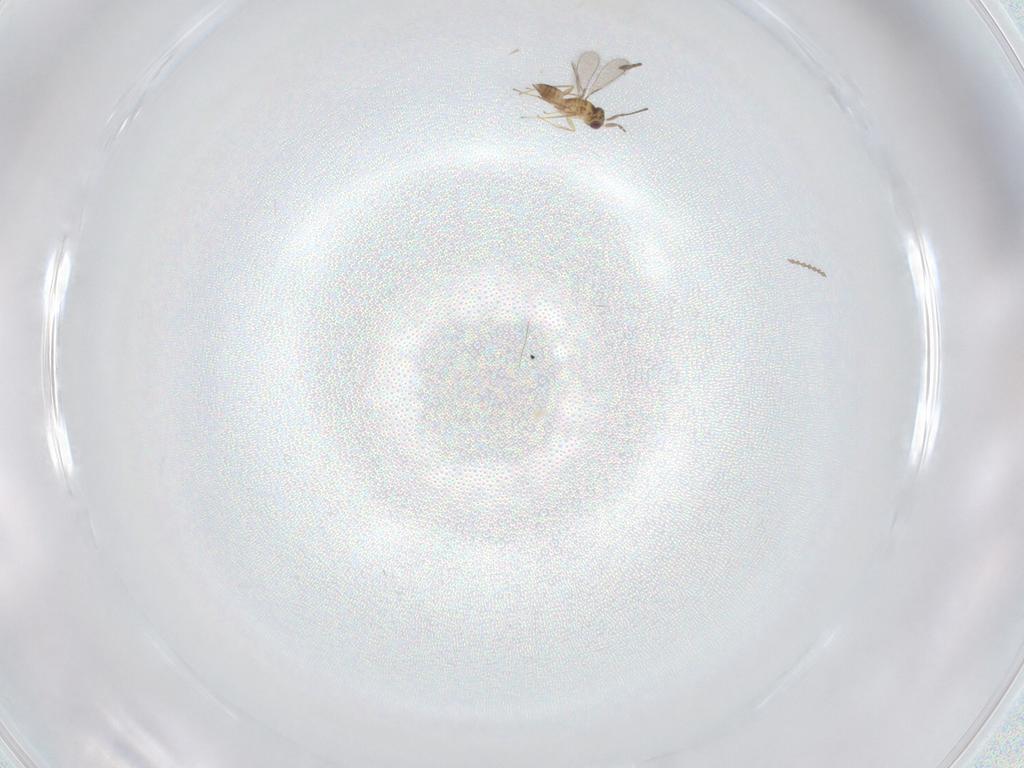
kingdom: Animalia
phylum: Arthropoda
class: Insecta
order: Hymenoptera
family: Mymaridae
